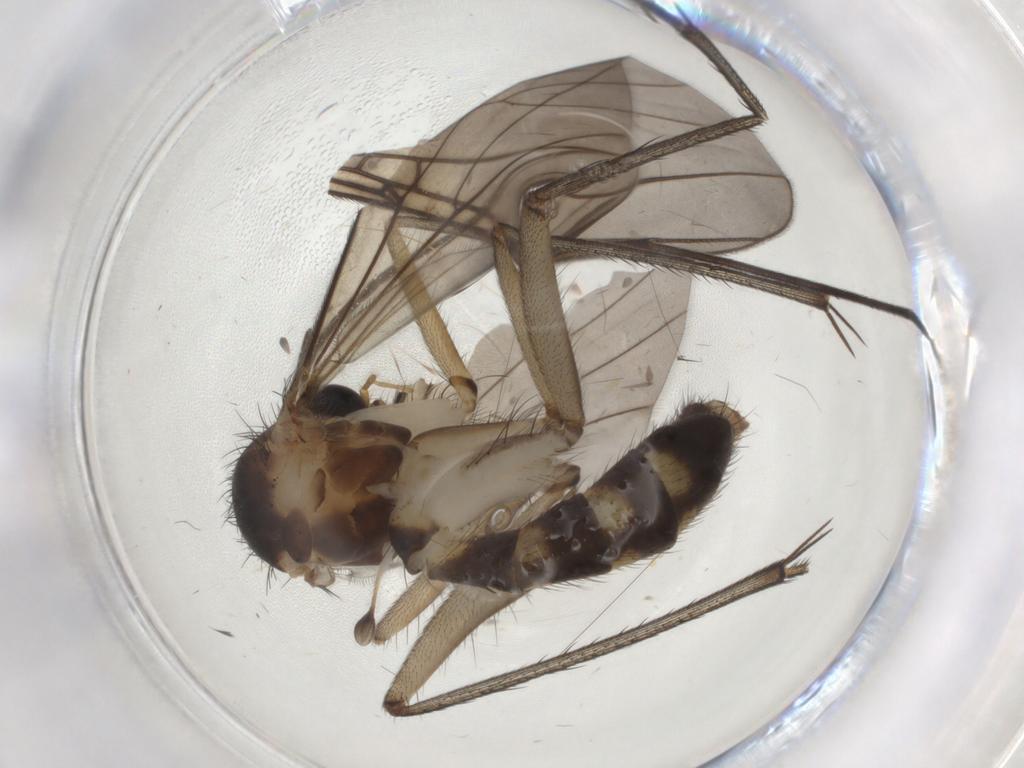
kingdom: Animalia
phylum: Arthropoda
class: Insecta
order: Diptera
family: Mycetophilidae
